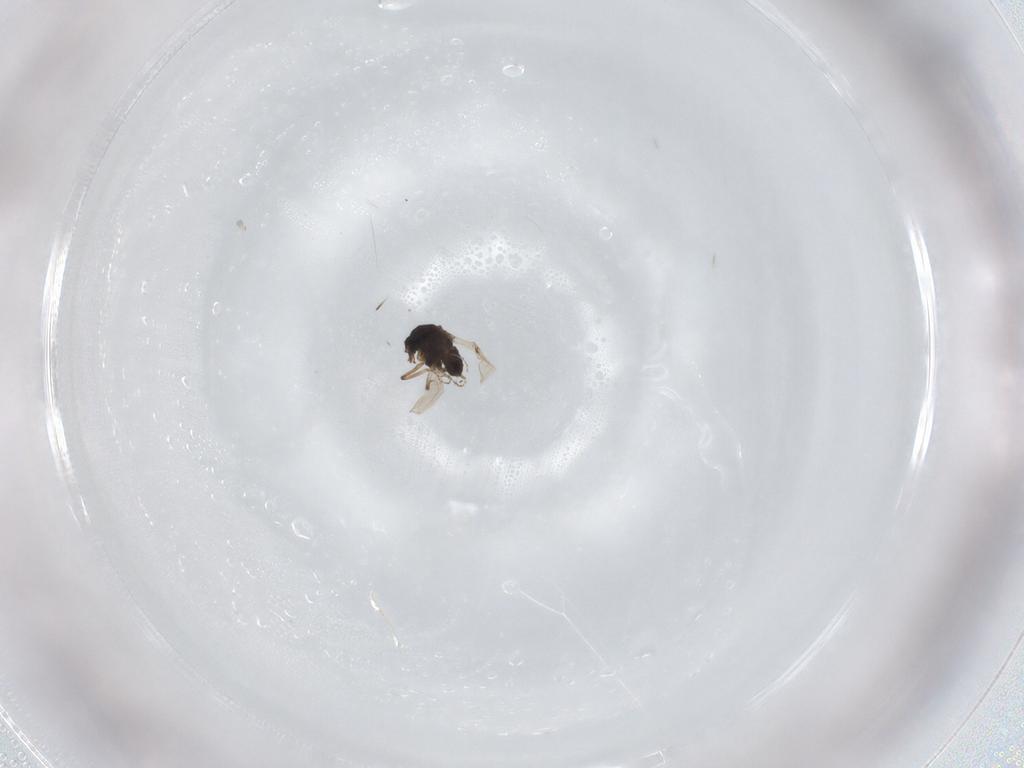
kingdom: Animalia
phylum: Arthropoda
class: Insecta
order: Diptera
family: Ceratopogonidae
